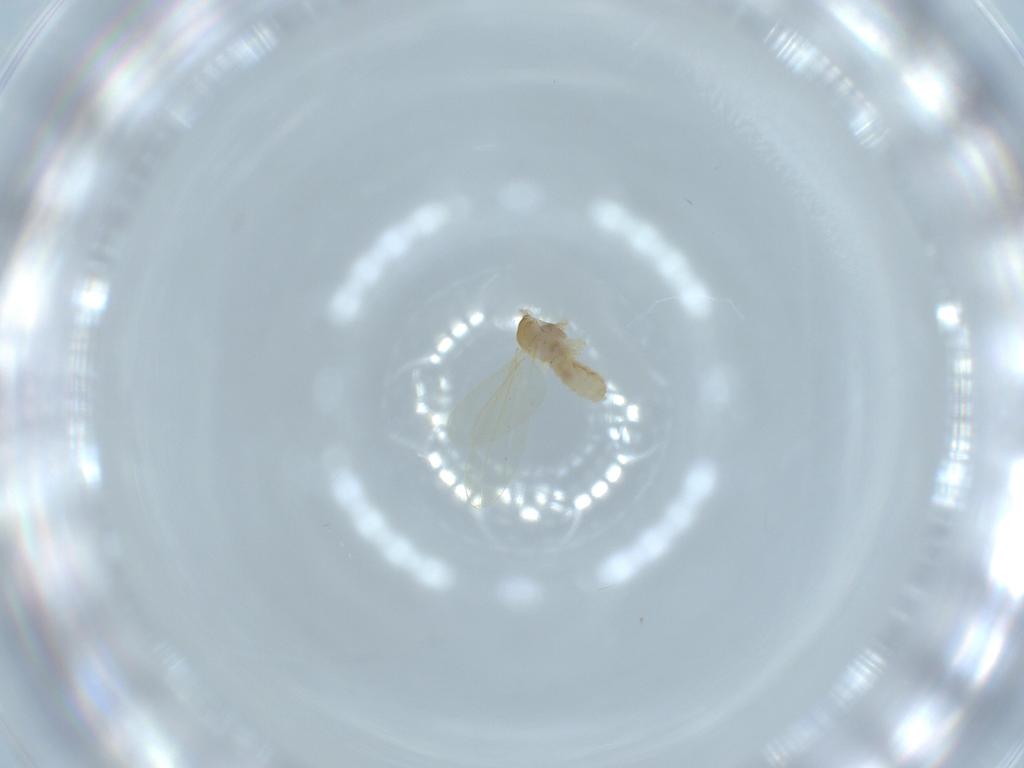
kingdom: Animalia
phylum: Arthropoda
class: Insecta
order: Diptera
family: Cecidomyiidae
